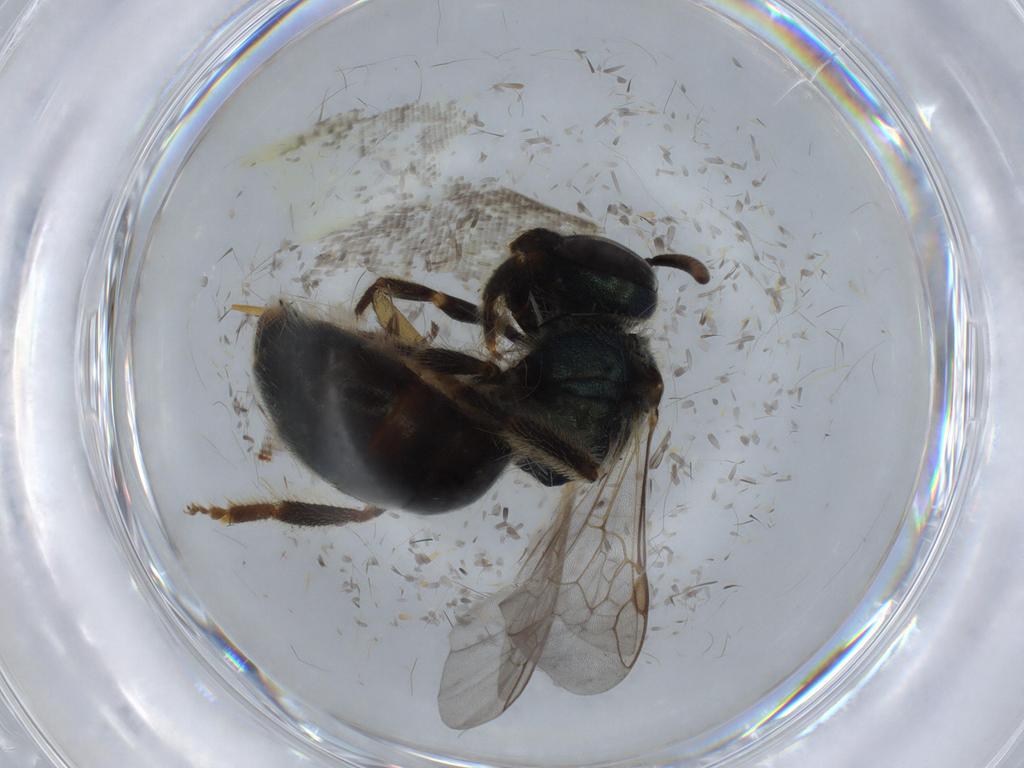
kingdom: Animalia
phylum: Arthropoda
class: Insecta
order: Hymenoptera
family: Halictidae
